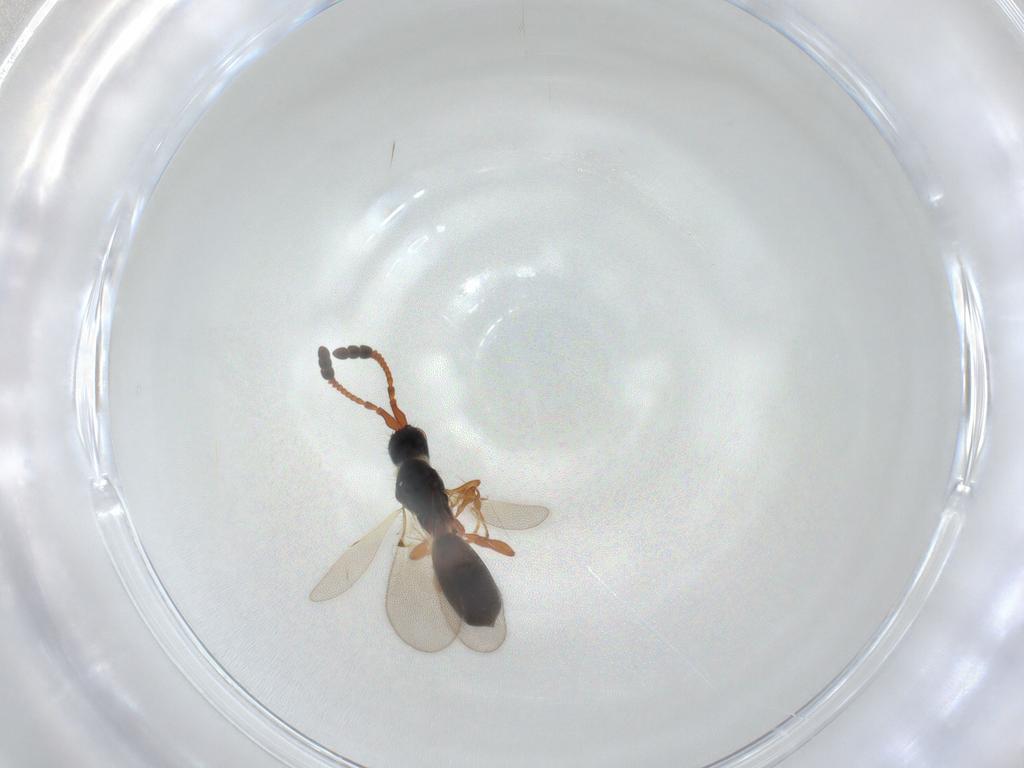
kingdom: Animalia
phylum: Arthropoda
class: Insecta
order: Hymenoptera
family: Diapriidae
